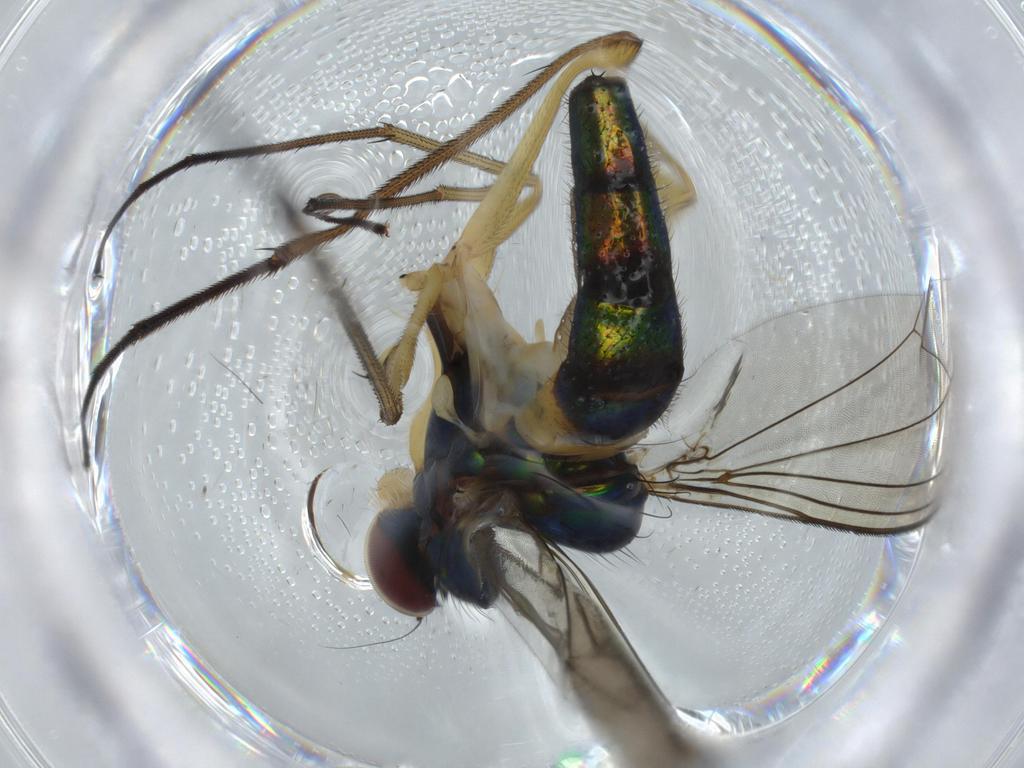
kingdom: Animalia
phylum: Arthropoda
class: Insecta
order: Diptera
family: Dolichopodidae
